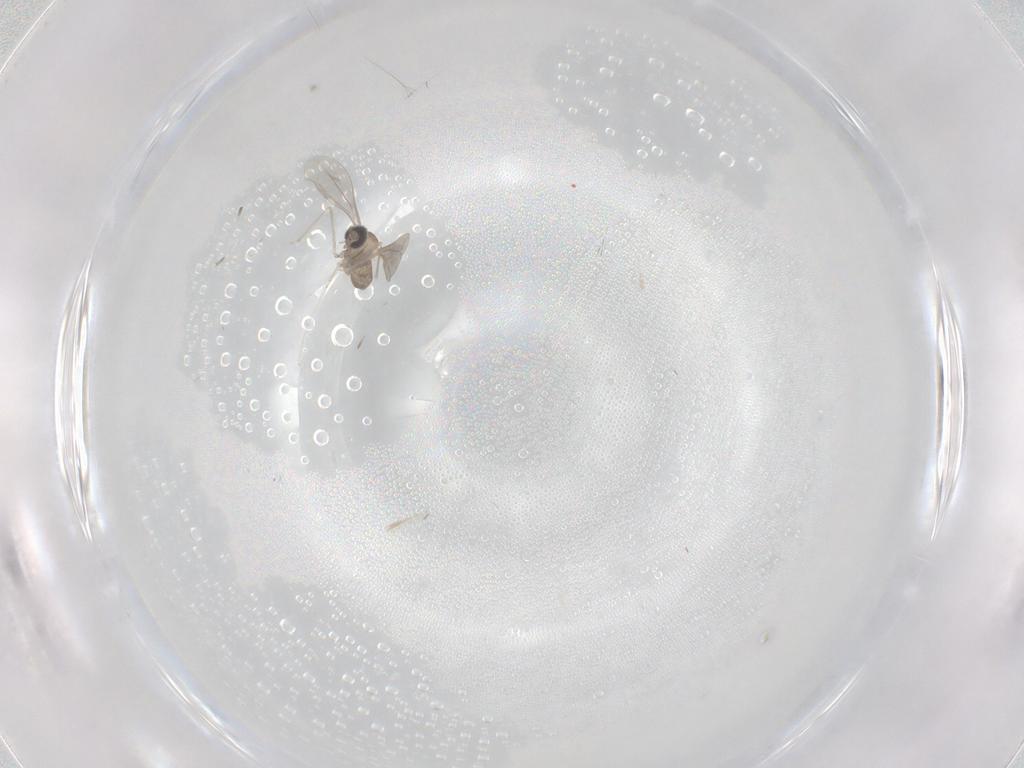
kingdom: Animalia
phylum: Arthropoda
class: Insecta
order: Diptera
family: Cecidomyiidae
